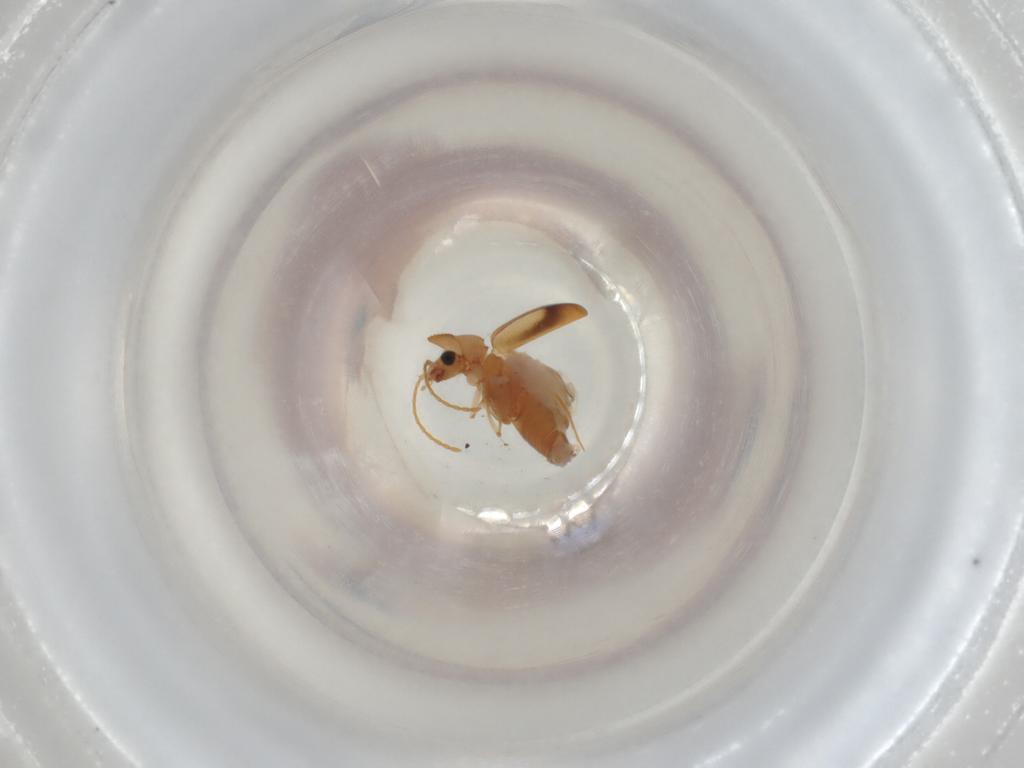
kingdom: Animalia
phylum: Arthropoda
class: Insecta
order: Coleoptera
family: Anthicidae
